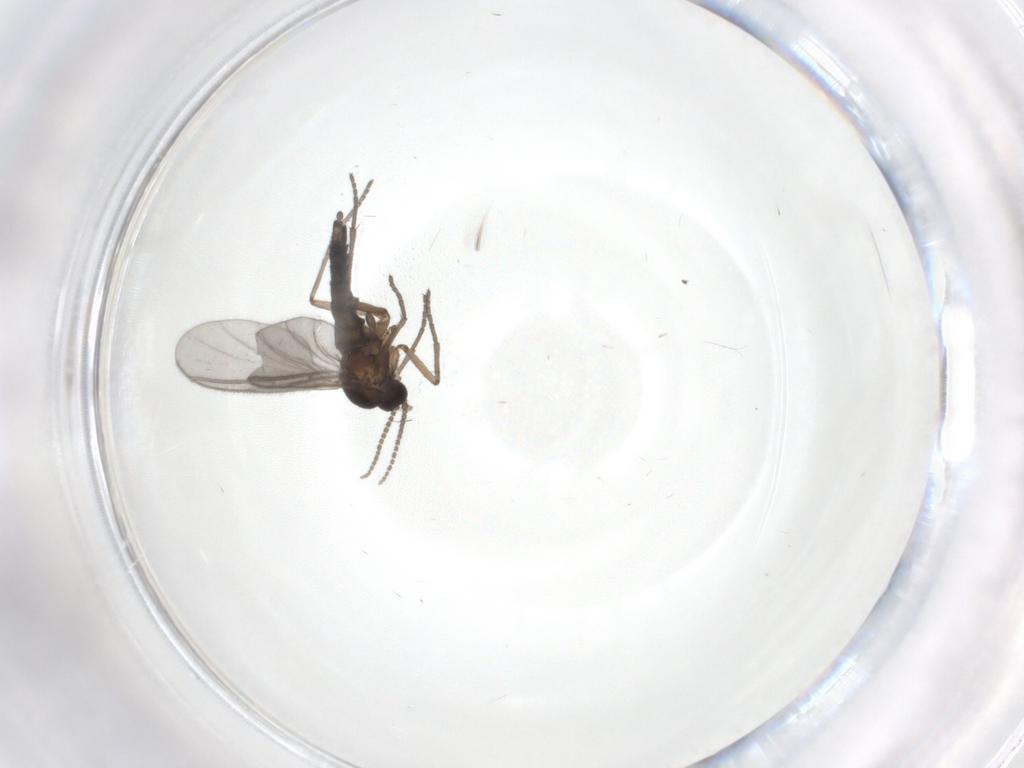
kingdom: Animalia
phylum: Arthropoda
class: Insecta
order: Diptera
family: Sciaridae
